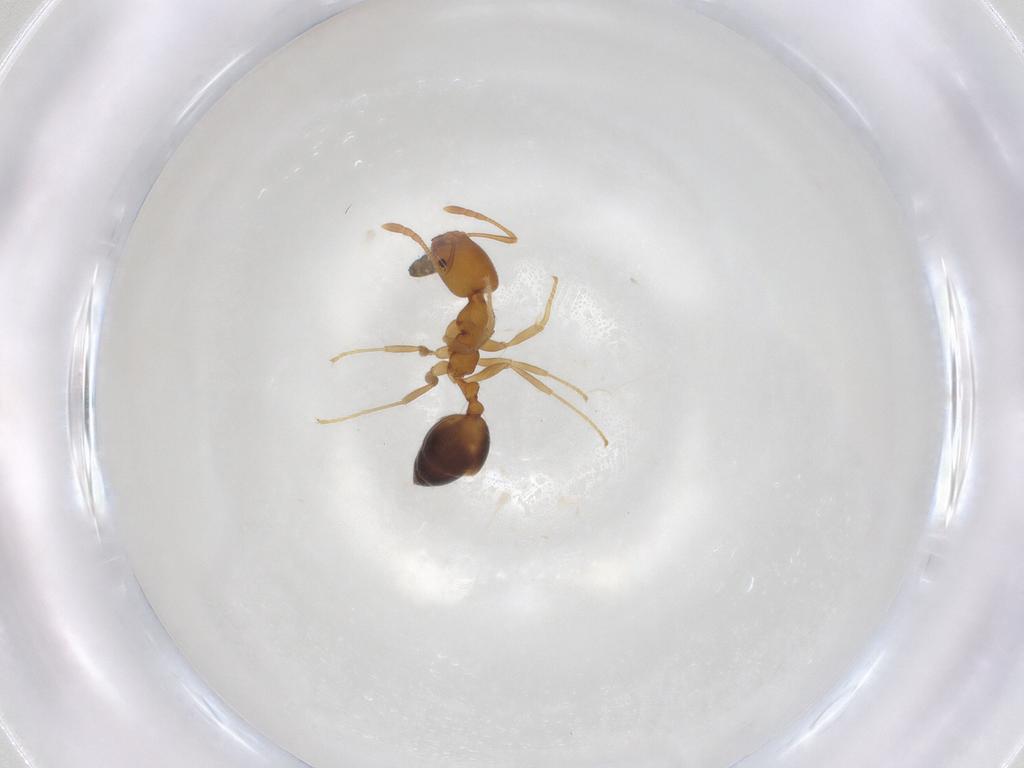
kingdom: Animalia
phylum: Arthropoda
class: Insecta
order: Hymenoptera
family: Formicidae
